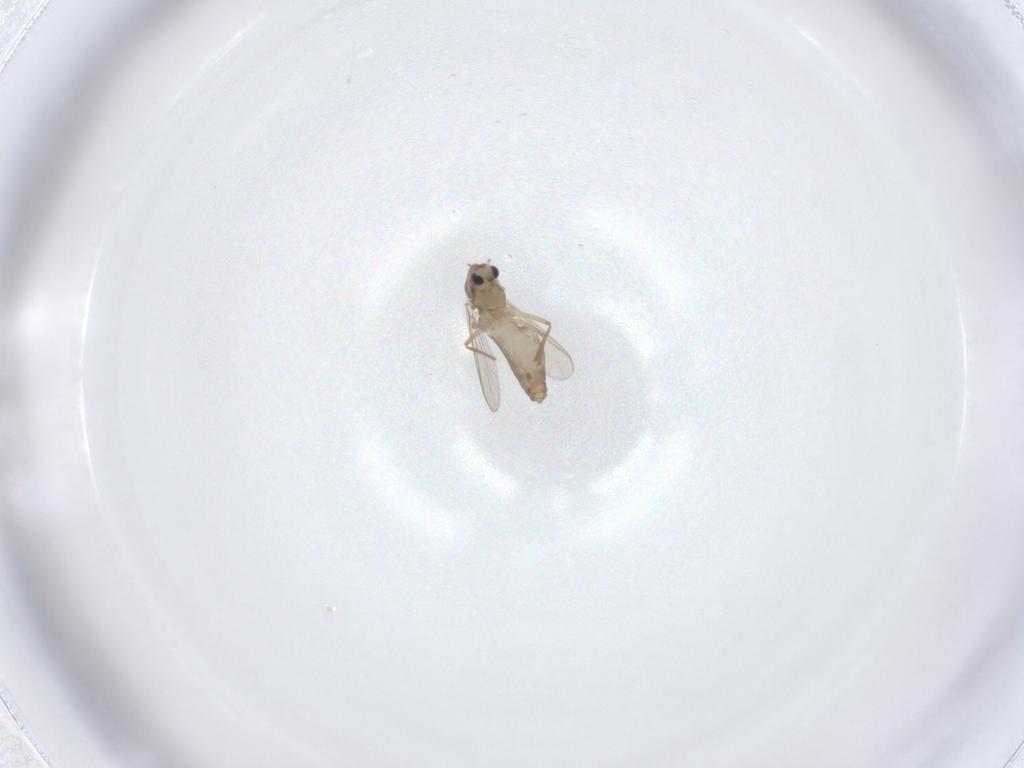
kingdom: Animalia
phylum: Arthropoda
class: Insecta
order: Diptera
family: Chironomidae
